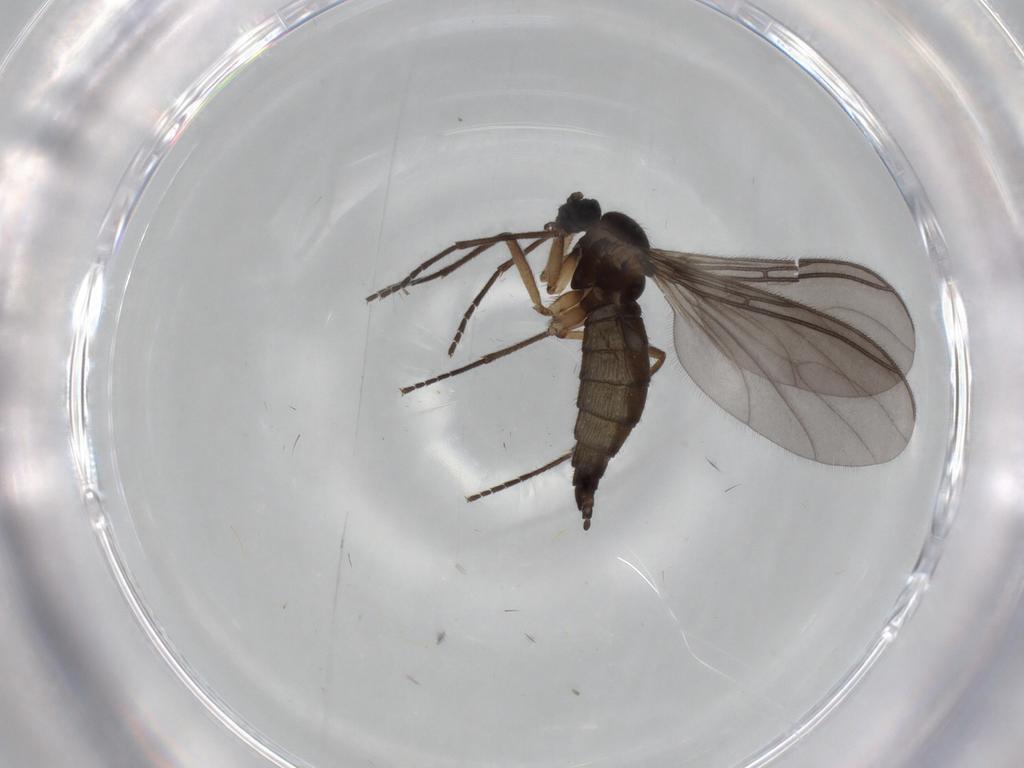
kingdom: Animalia
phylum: Arthropoda
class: Insecta
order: Diptera
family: Sciaridae
